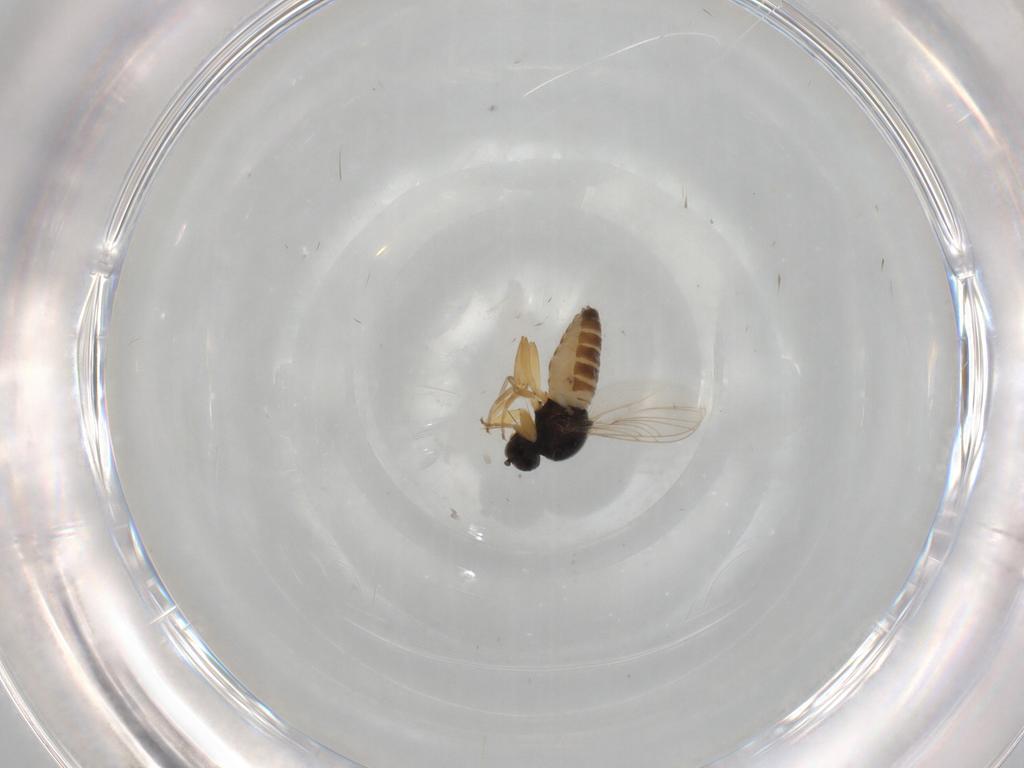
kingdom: Animalia
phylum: Arthropoda
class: Insecta
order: Diptera
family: Hybotidae
